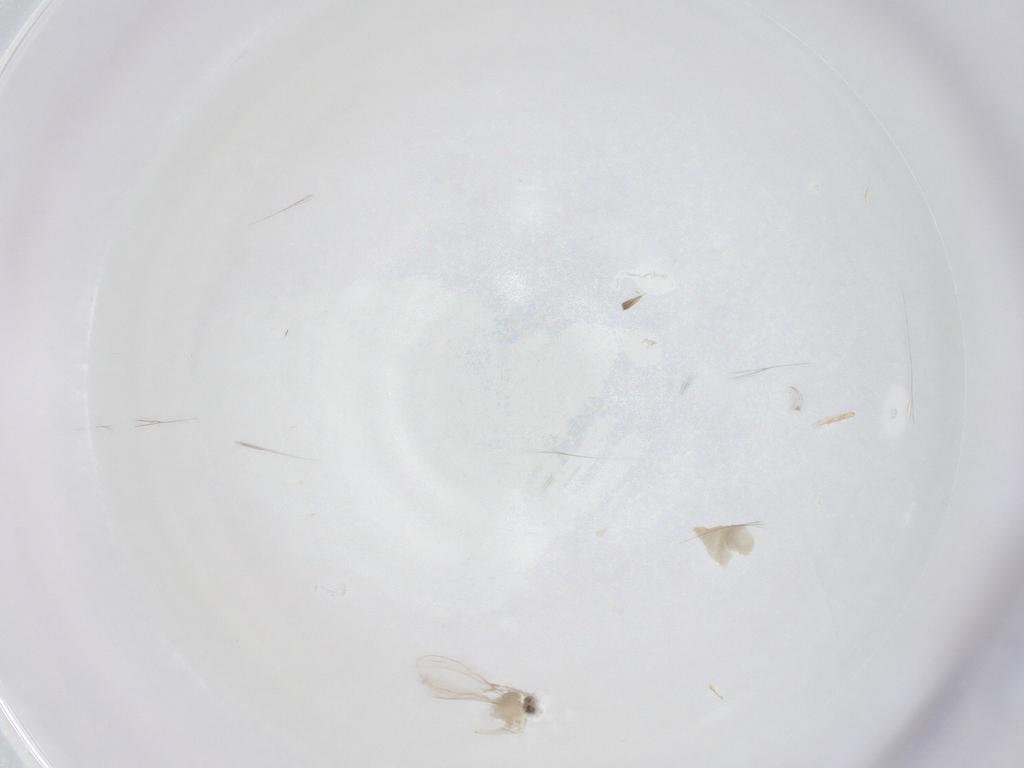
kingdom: Animalia
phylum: Arthropoda
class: Insecta
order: Diptera
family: Cecidomyiidae
